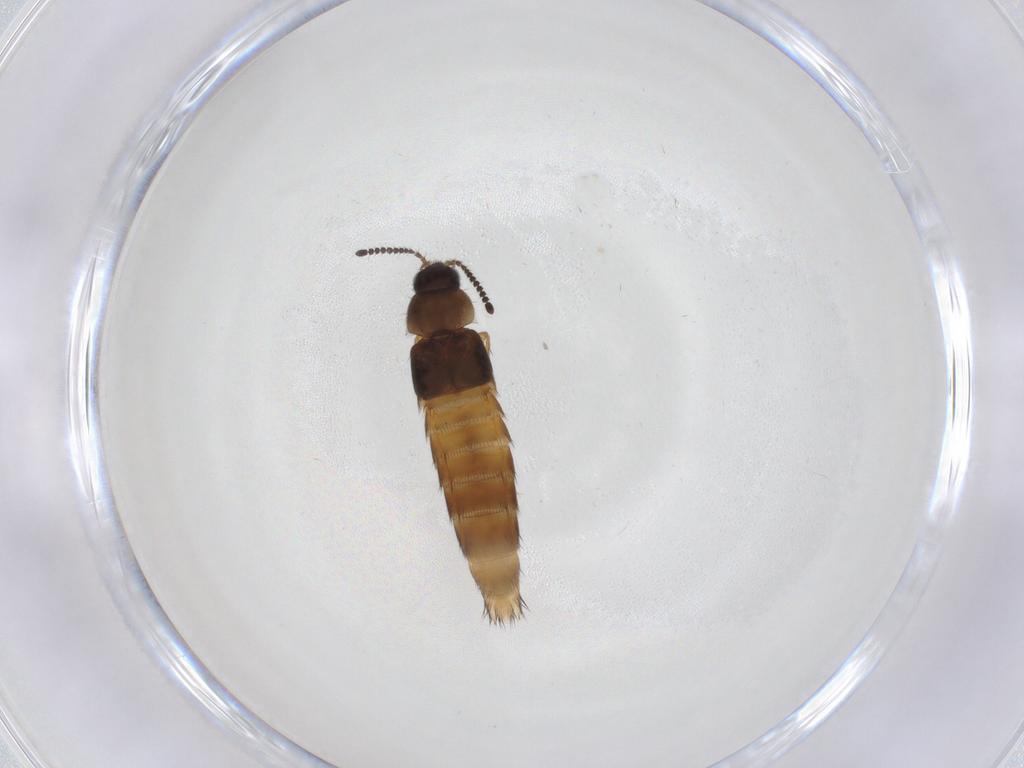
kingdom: Animalia
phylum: Arthropoda
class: Insecta
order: Coleoptera
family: Staphylinidae
